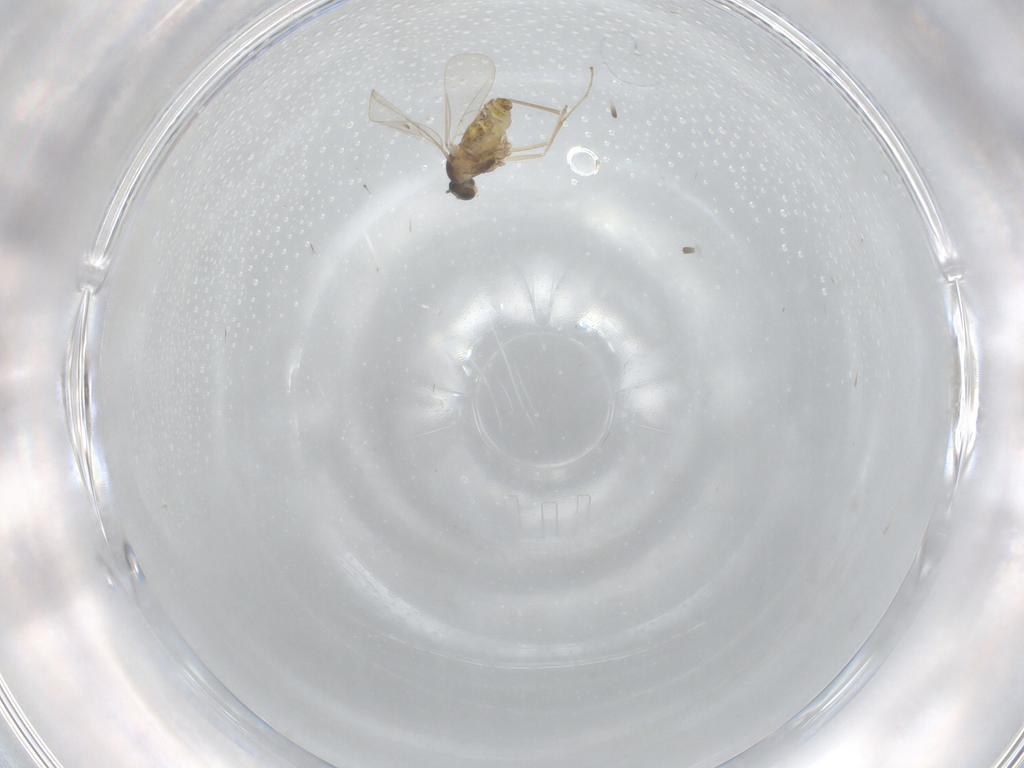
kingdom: Animalia
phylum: Arthropoda
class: Insecta
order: Diptera
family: Cecidomyiidae
